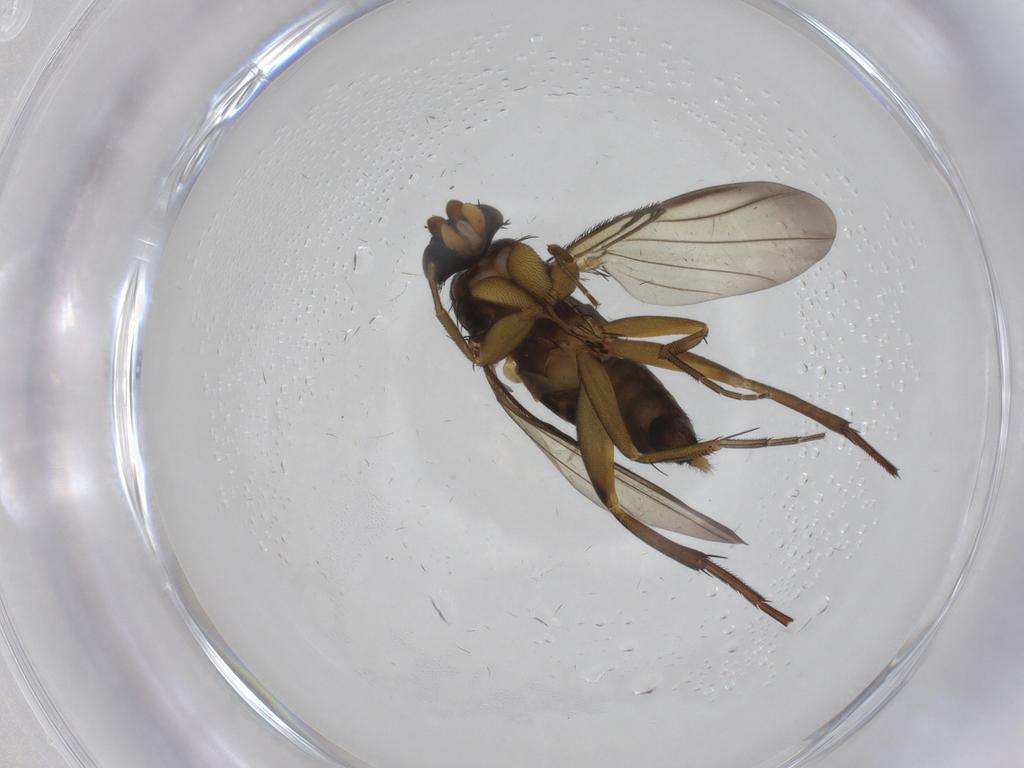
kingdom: Animalia
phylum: Arthropoda
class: Insecta
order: Diptera
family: Phoridae
